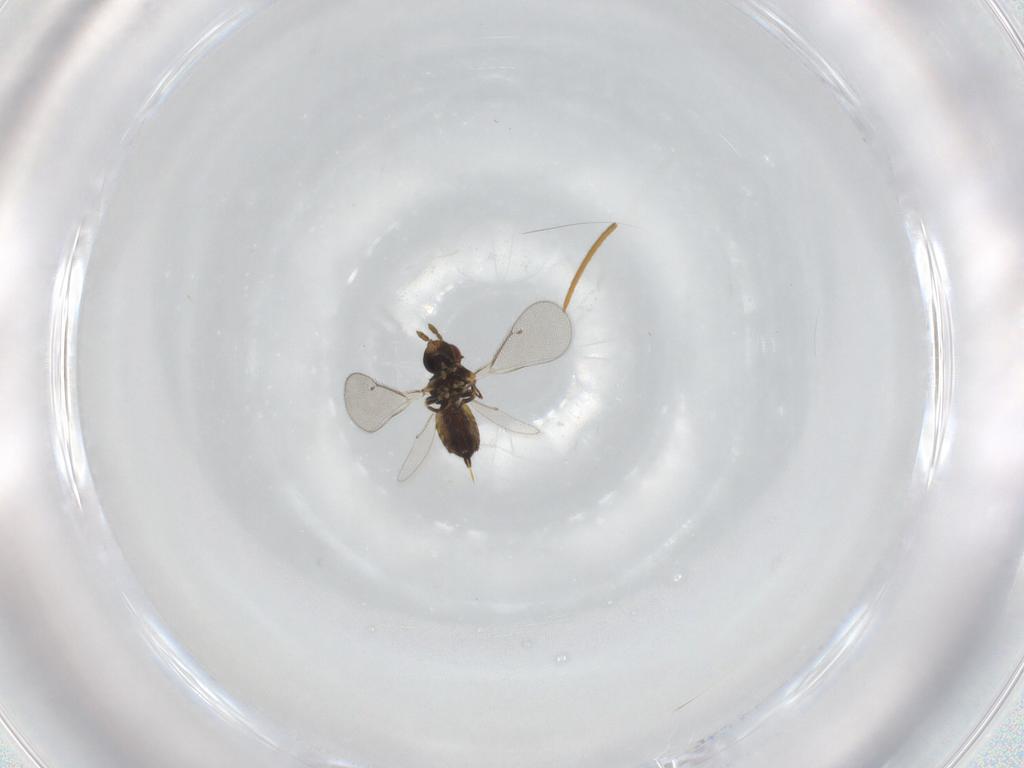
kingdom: Animalia
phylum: Arthropoda
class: Insecta
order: Hymenoptera
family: Eulophidae
